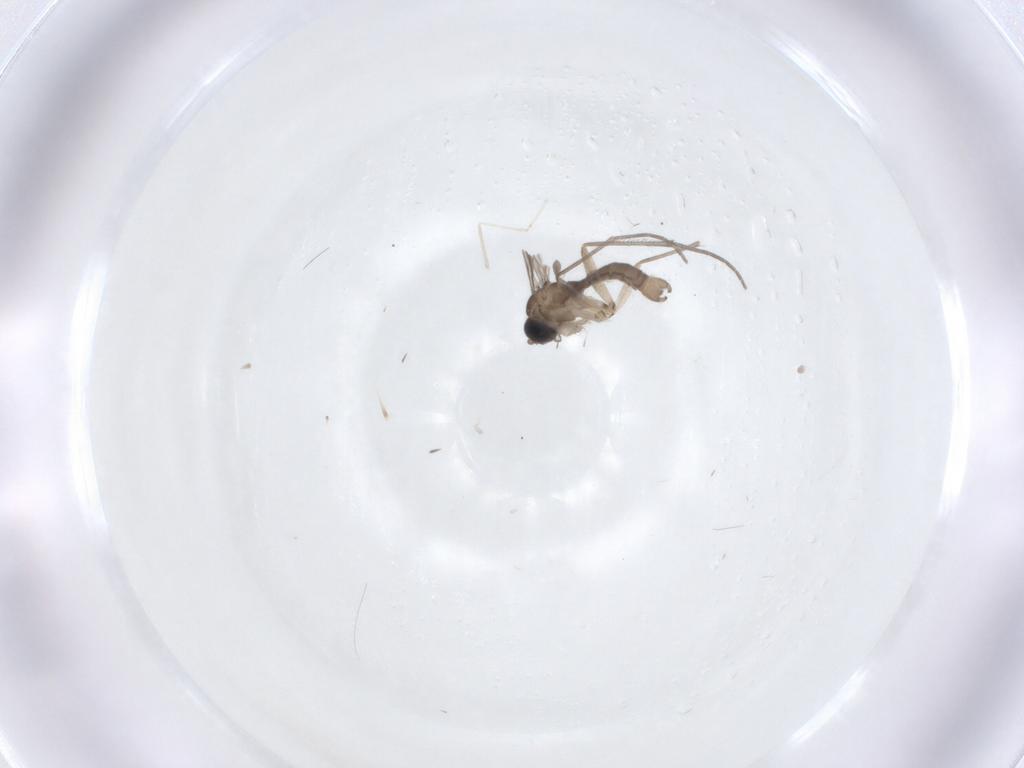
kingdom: Animalia
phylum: Arthropoda
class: Insecta
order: Diptera
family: Sciaridae
